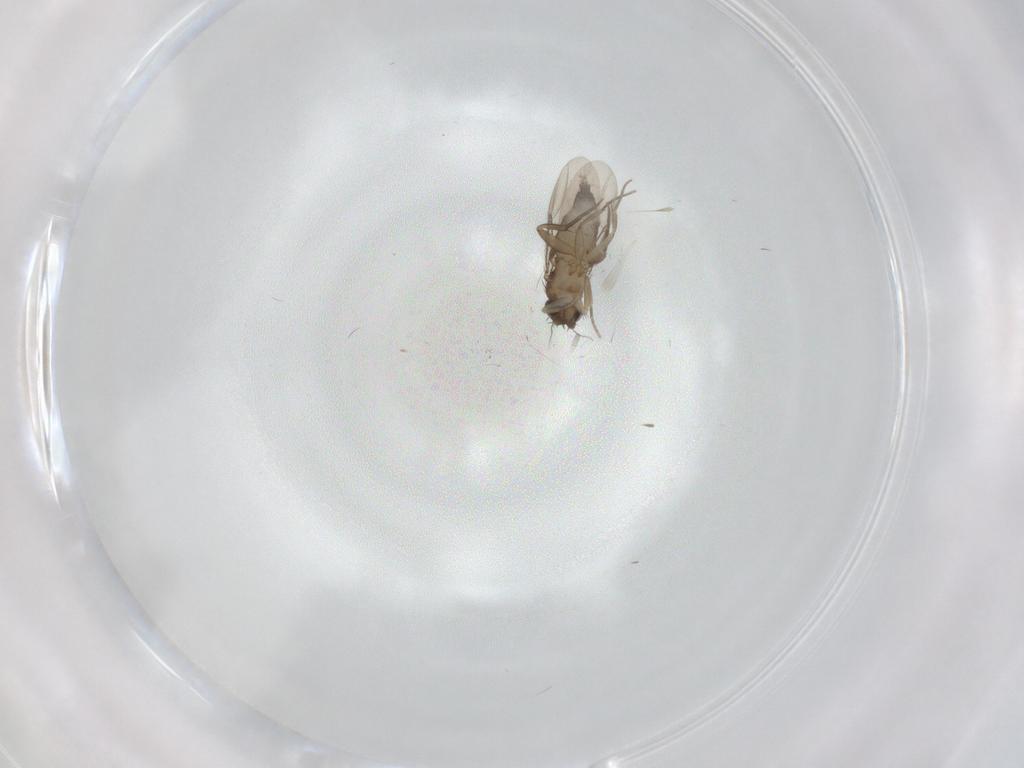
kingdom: Animalia
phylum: Arthropoda
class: Insecta
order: Diptera
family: Phoridae
